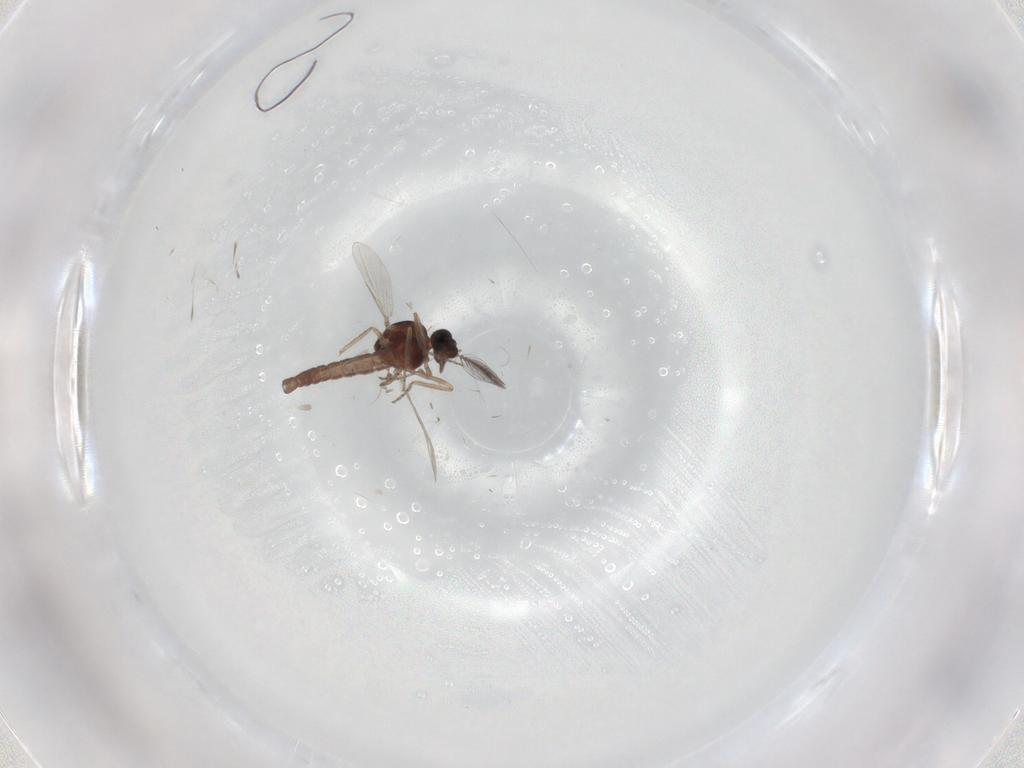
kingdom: Animalia
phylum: Arthropoda
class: Insecta
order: Diptera
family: Ceratopogonidae
